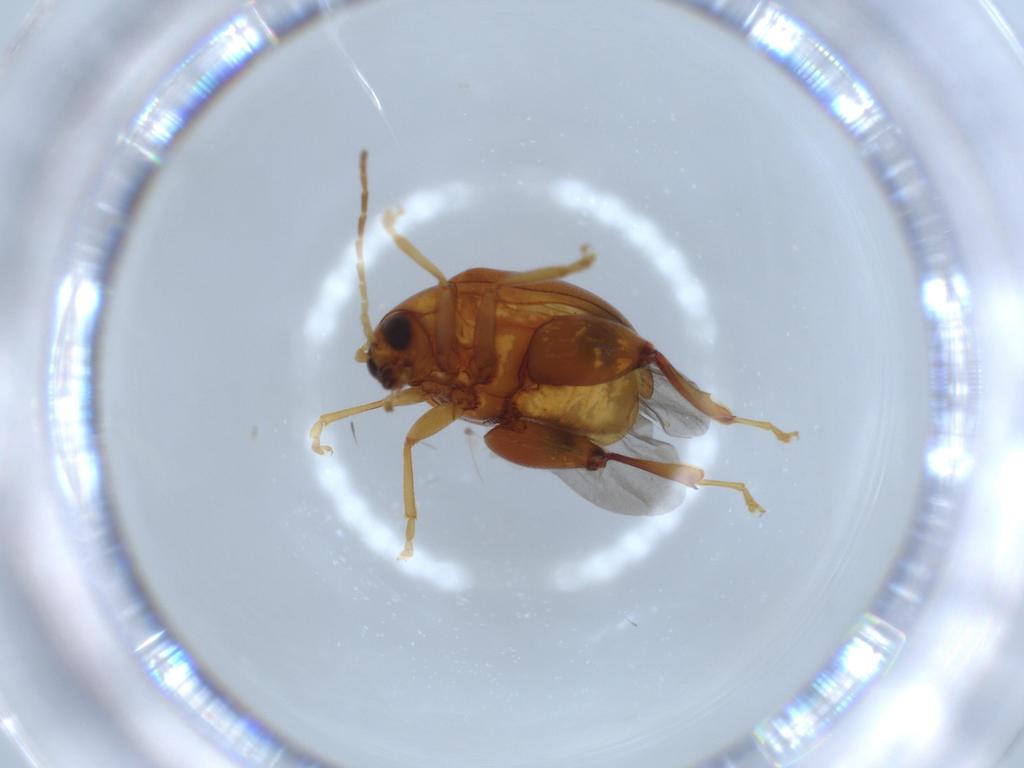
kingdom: Animalia
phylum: Arthropoda
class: Insecta
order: Coleoptera
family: Chrysomelidae
